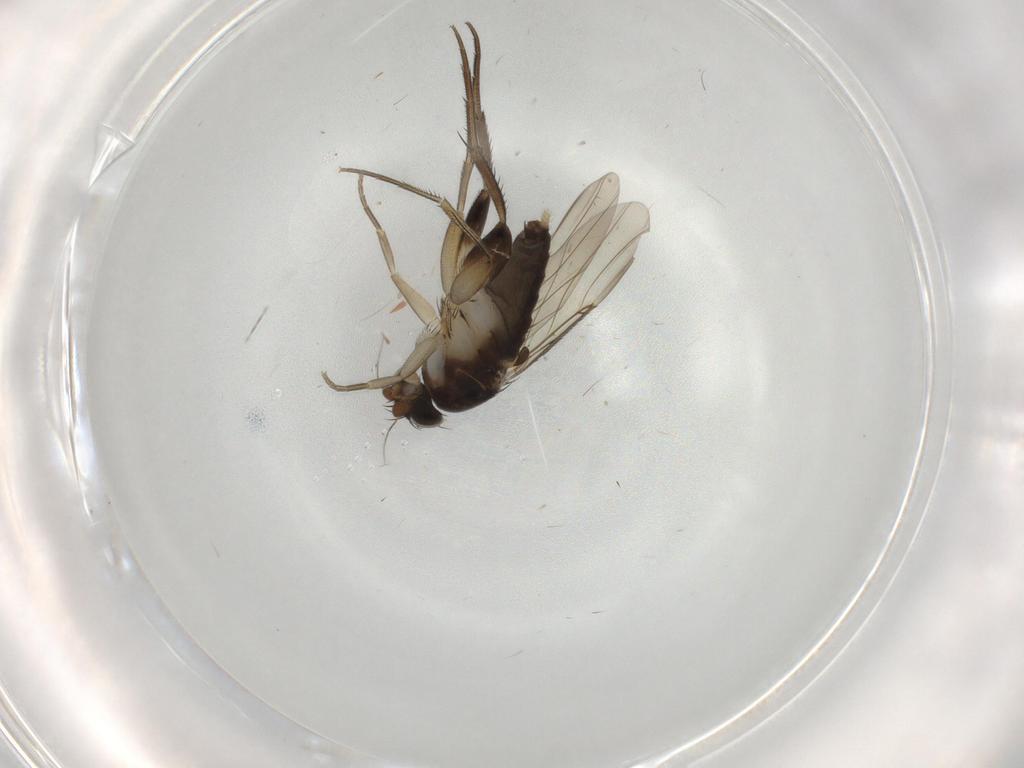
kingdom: Animalia
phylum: Arthropoda
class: Insecta
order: Diptera
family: Phoridae
